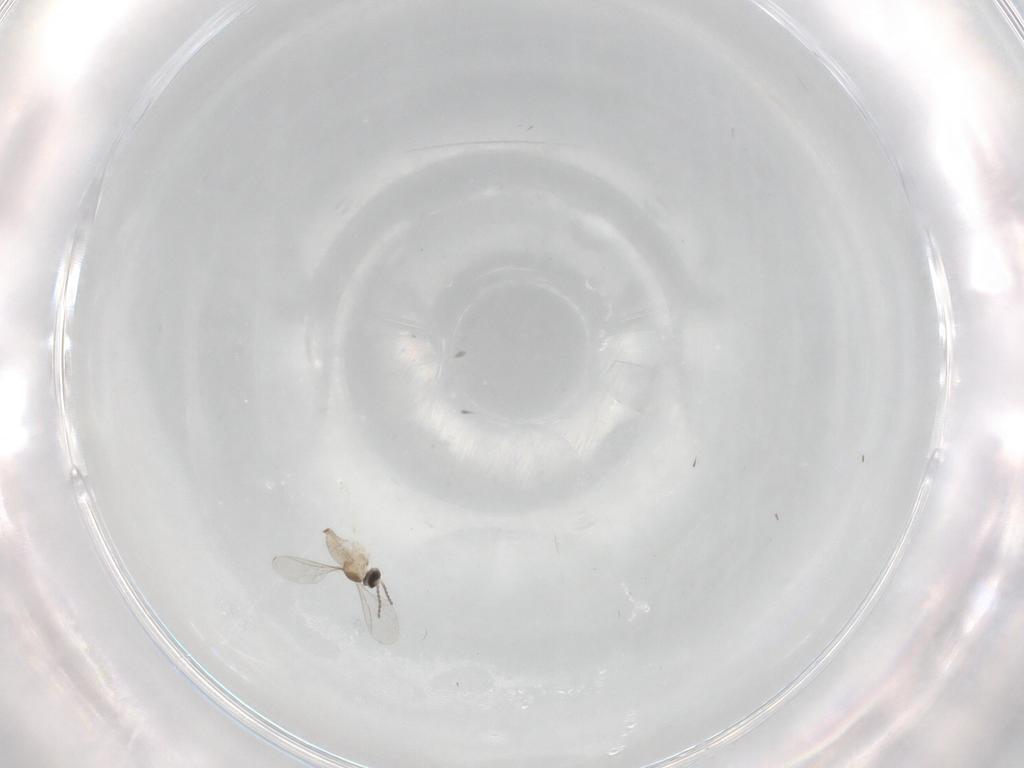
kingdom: Animalia
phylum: Arthropoda
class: Insecta
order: Diptera
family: Cecidomyiidae
